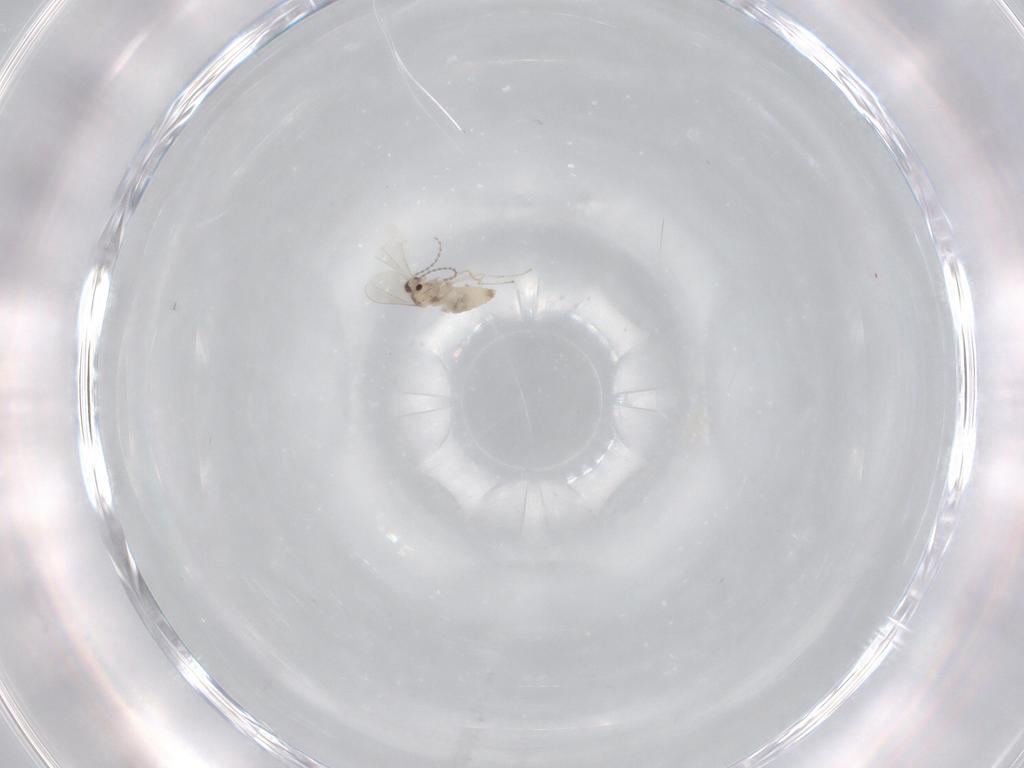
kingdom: Animalia
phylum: Arthropoda
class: Insecta
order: Diptera
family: Cecidomyiidae
